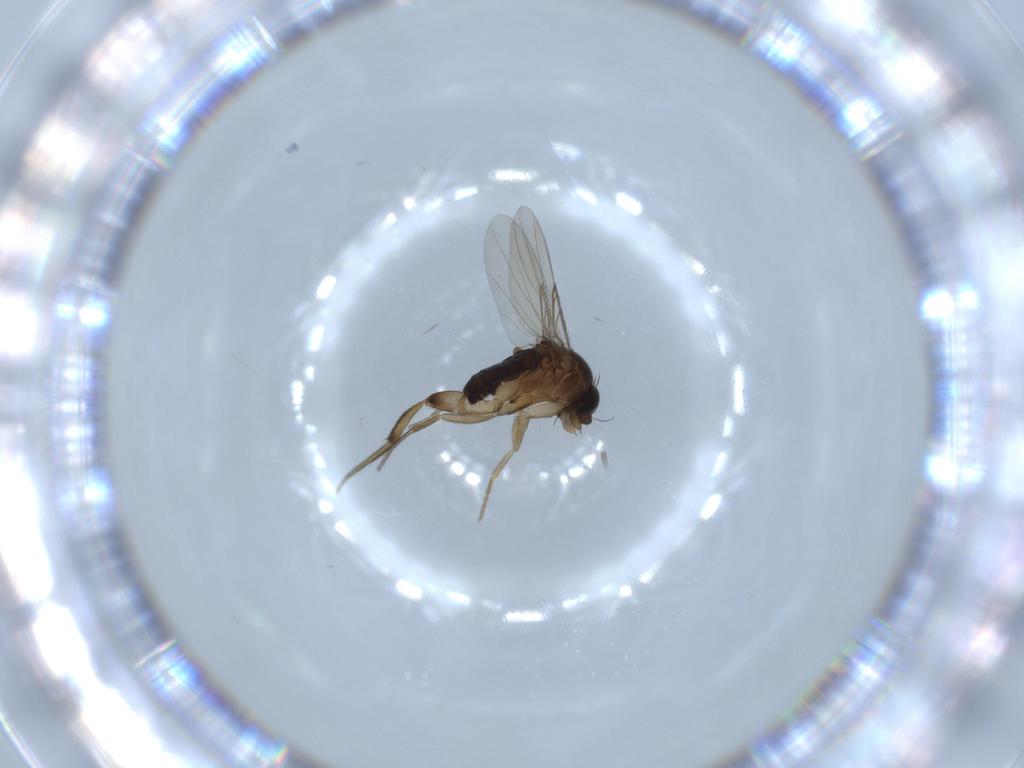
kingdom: Animalia
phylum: Arthropoda
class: Insecta
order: Diptera
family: Phoridae
